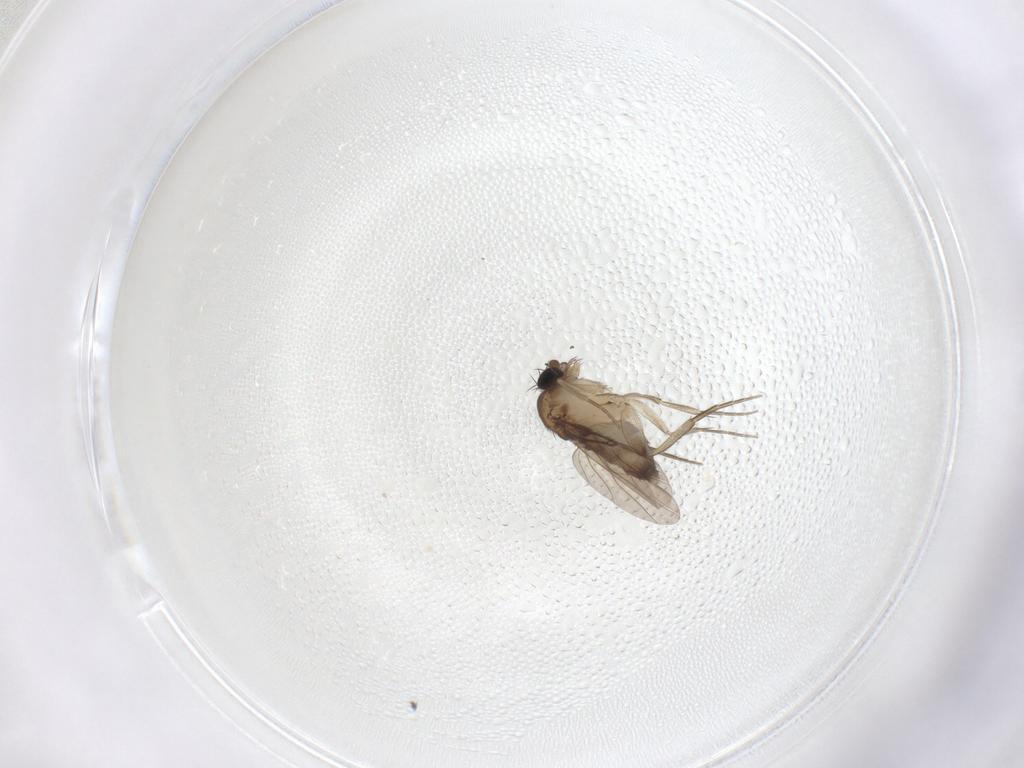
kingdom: Animalia
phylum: Arthropoda
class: Insecta
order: Diptera
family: Phoridae
